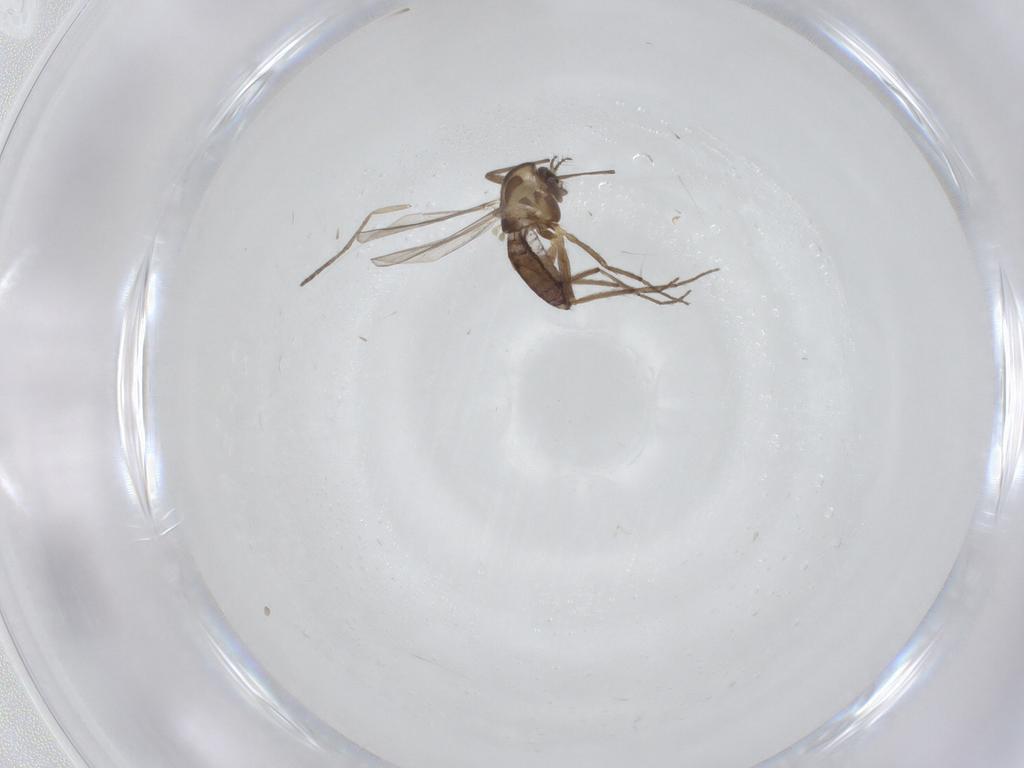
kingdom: Animalia
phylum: Arthropoda
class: Insecta
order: Diptera
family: Chironomidae
